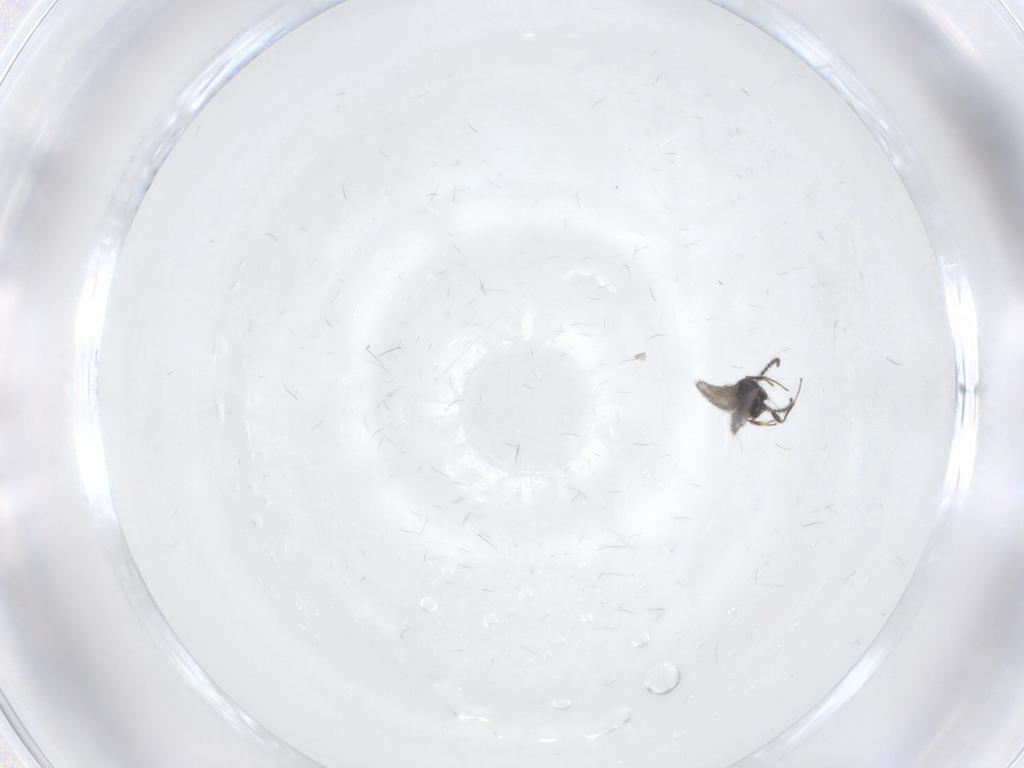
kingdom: Animalia
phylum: Arthropoda
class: Insecta
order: Hymenoptera
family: Scelionidae
